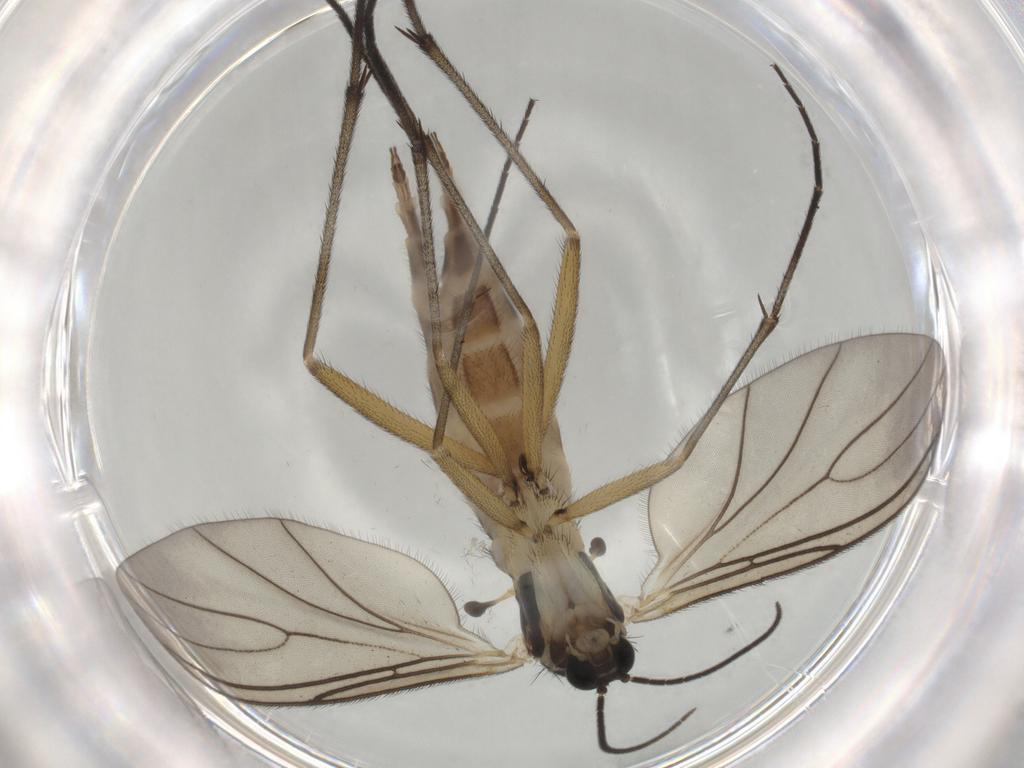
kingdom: Animalia
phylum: Arthropoda
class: Insecta
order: Diptera
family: Sciaridae
